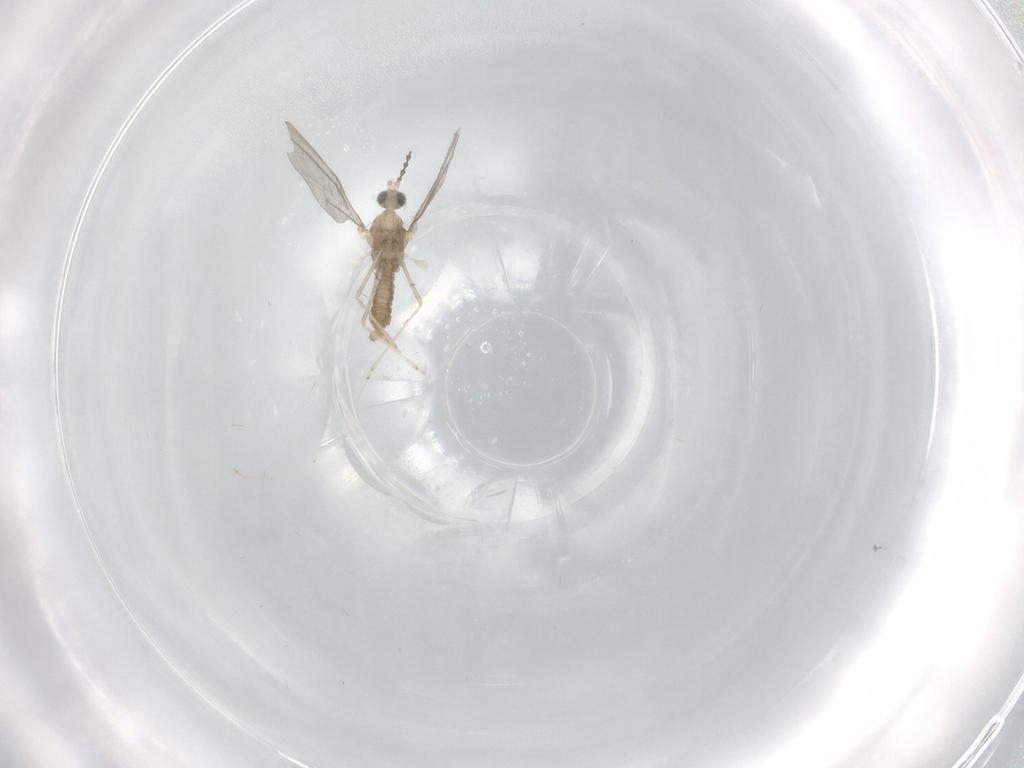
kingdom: Animalia
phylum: Arthropoda
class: Insecta
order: Diptera
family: Cecidomyiidae
